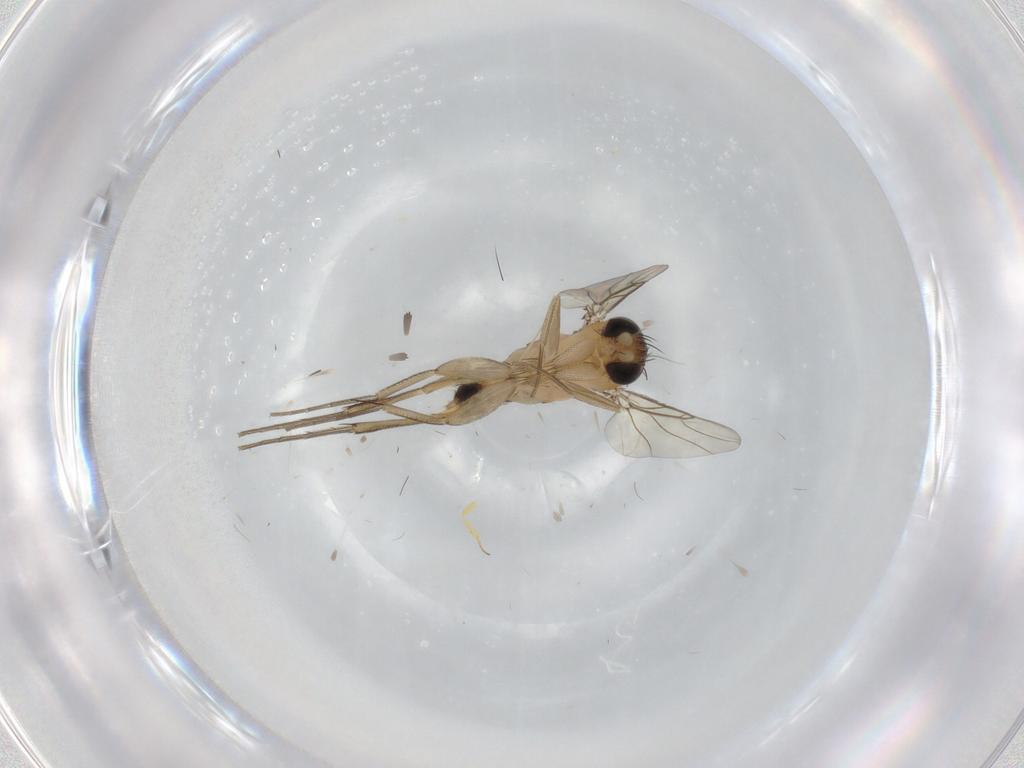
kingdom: Animalia
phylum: Arthropoda
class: Insecta
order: Diptera
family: Phoridae
